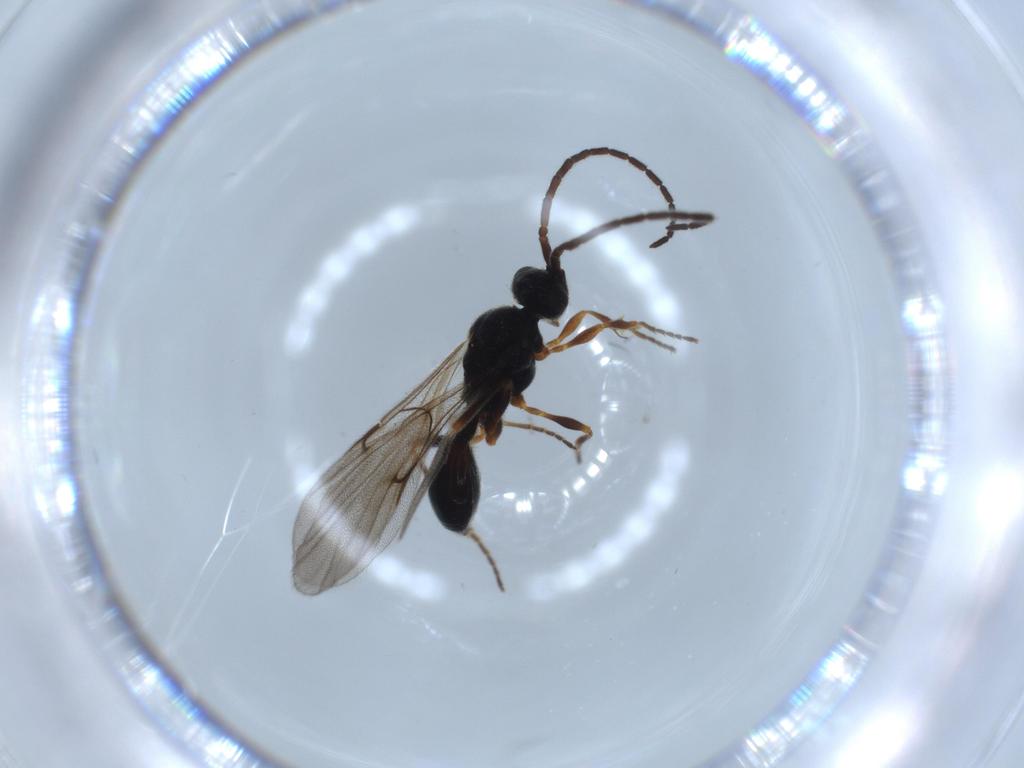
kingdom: Animalia
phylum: Arthropoda
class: Insecta
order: Hymenoptera
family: Diapriidae
